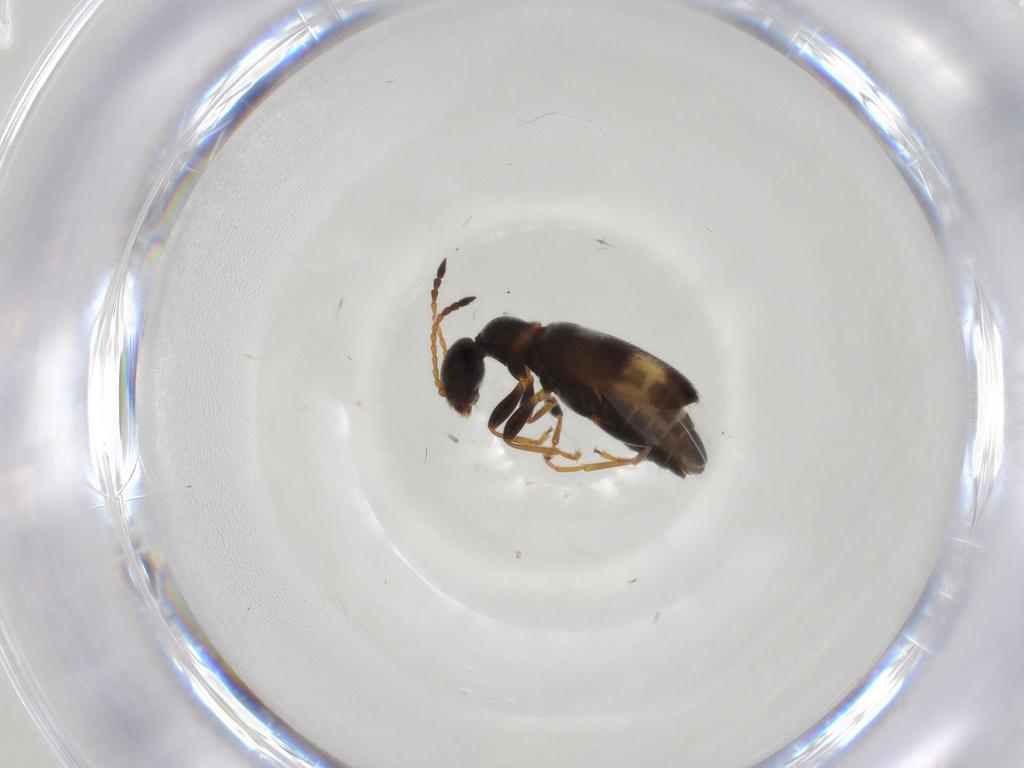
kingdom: Animalia
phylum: Arthropoda
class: Insecta
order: Coleoptera
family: Anthicidae
